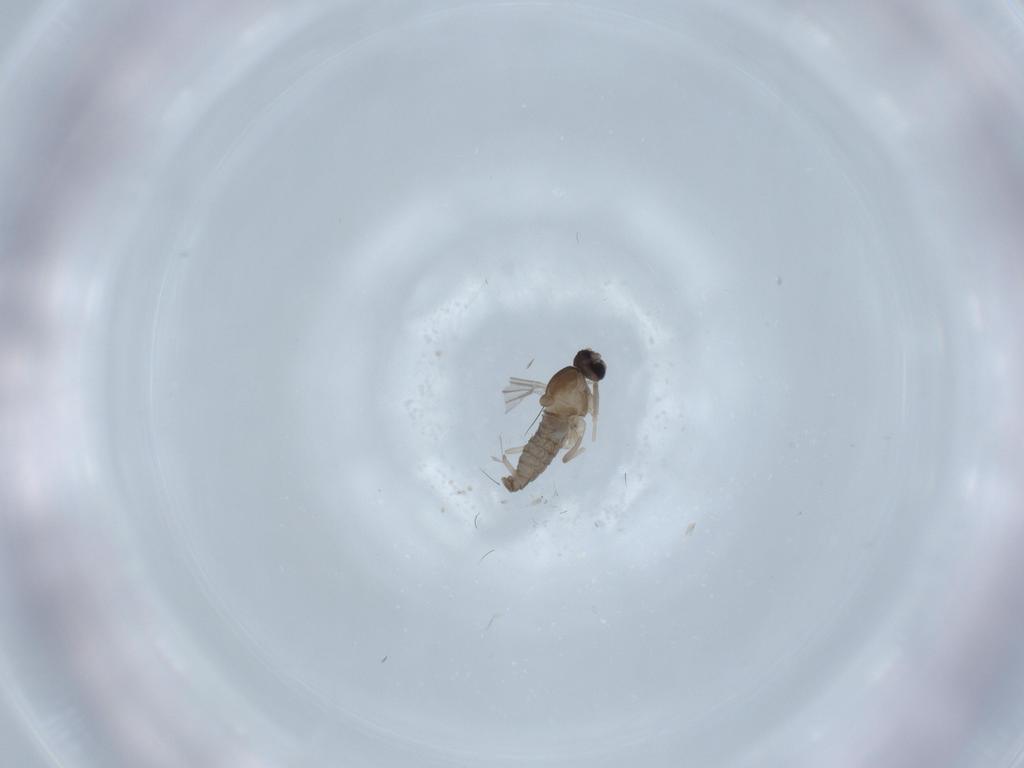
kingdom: Animalia
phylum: Arthropoda
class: Insecta
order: Diptera
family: Cecidomyiidae
